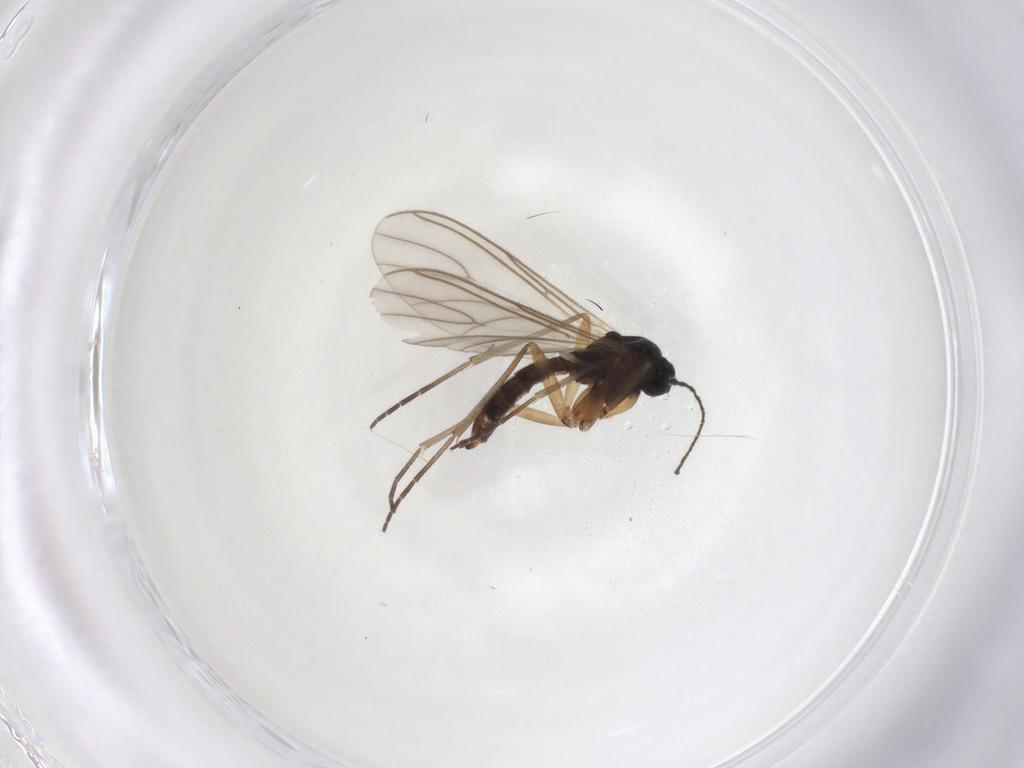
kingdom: Animalia
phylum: Arthropoda
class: Insecta
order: Diptera
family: Sciaridae
